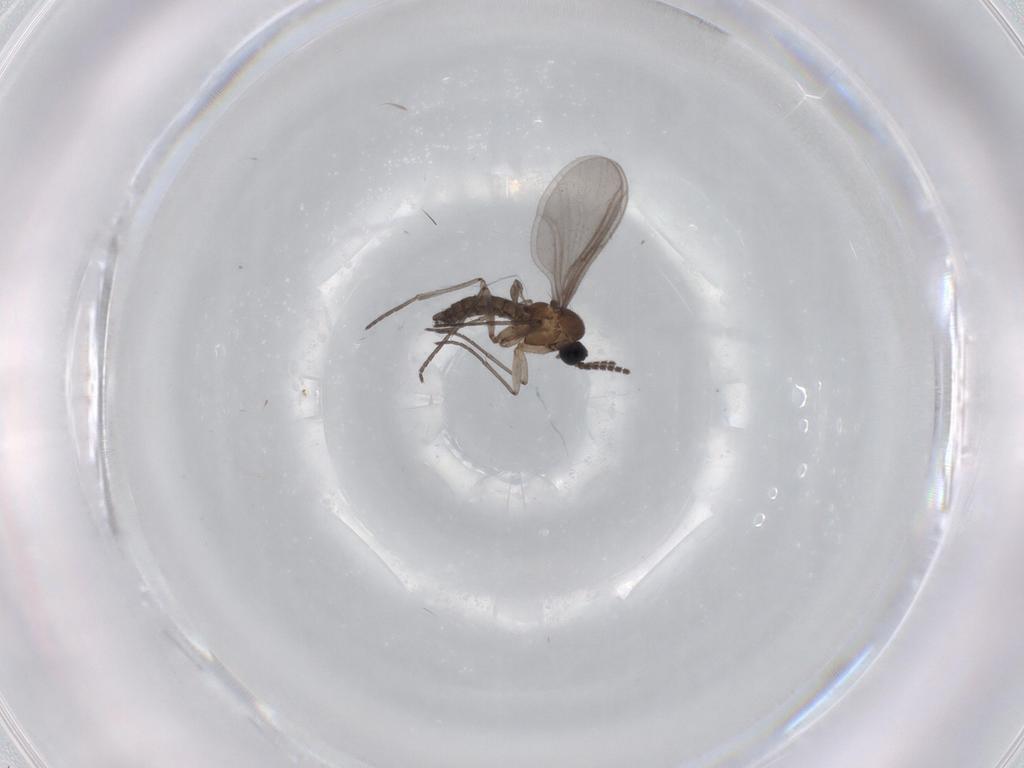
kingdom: Animalia
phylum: Arthropoda
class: Insecta
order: Diptera
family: Sciaridae
